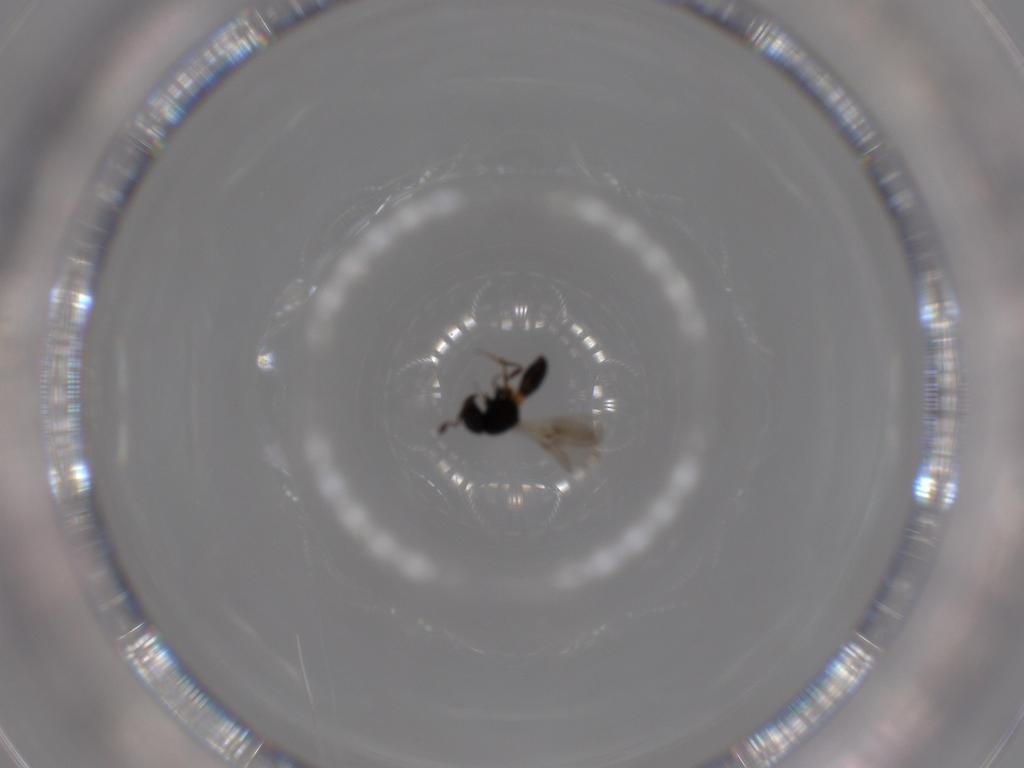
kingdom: Animalia
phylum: Arthropoda
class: Insecta
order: Hymenoptera
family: Scelionidae
